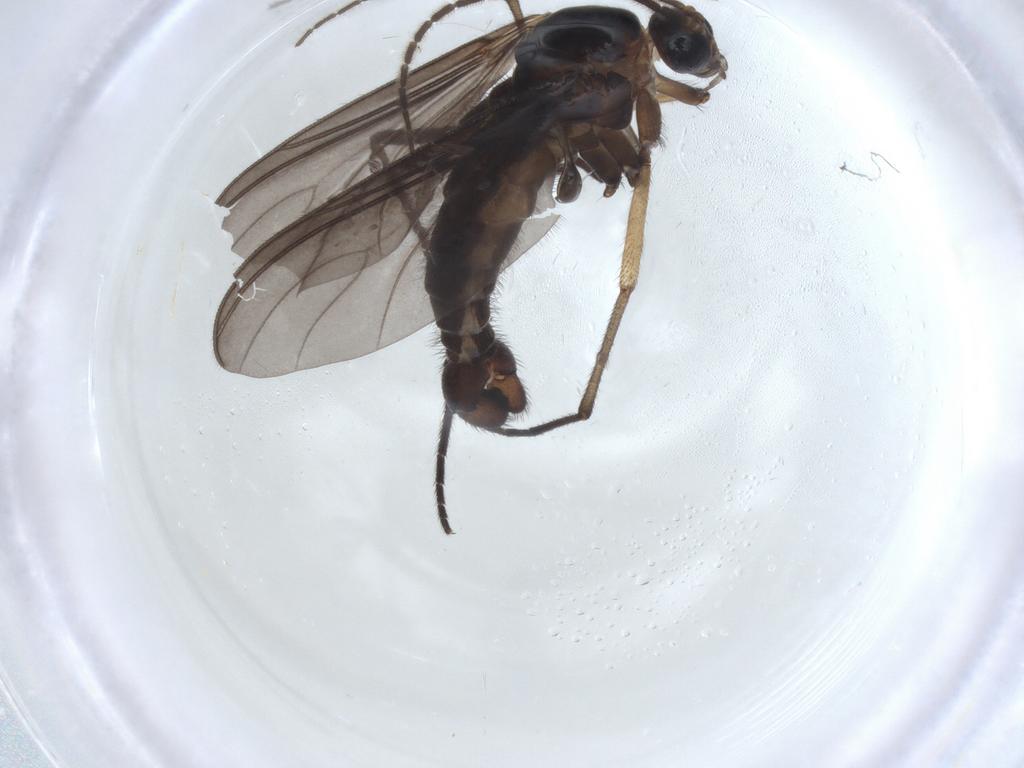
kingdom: Animalia
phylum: Arthropoda
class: Insecta
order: Diptera
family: Sciaridae
